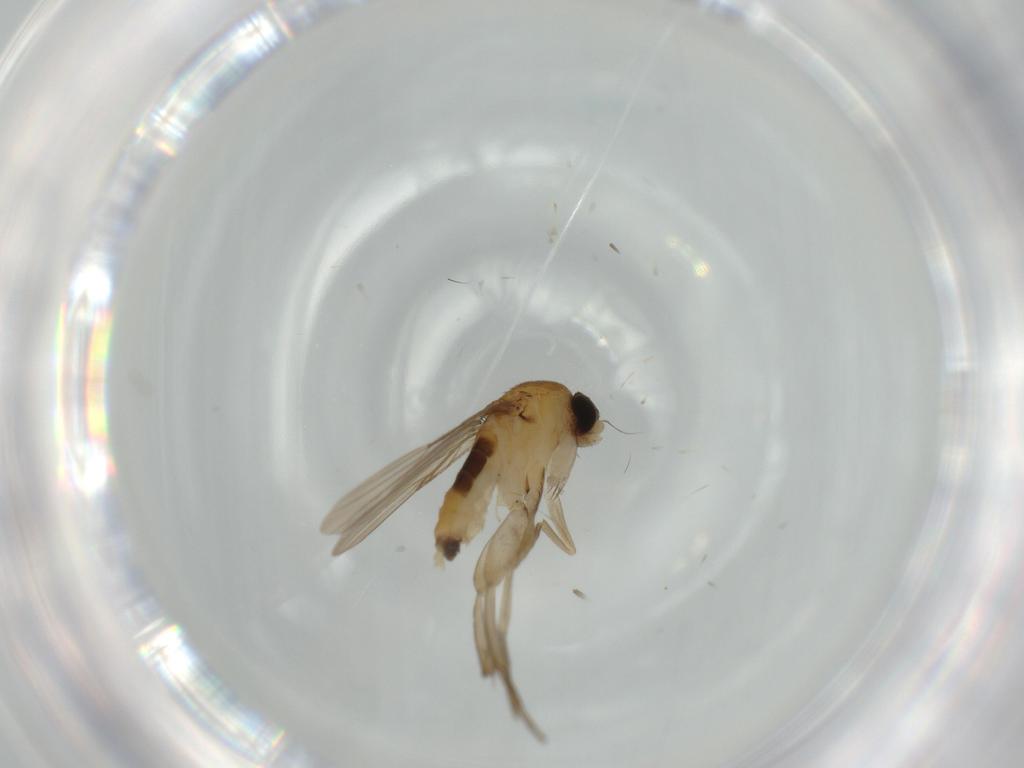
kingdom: Animalia
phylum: Arthropoda
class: Insecta
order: Diptera
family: Phoridae
